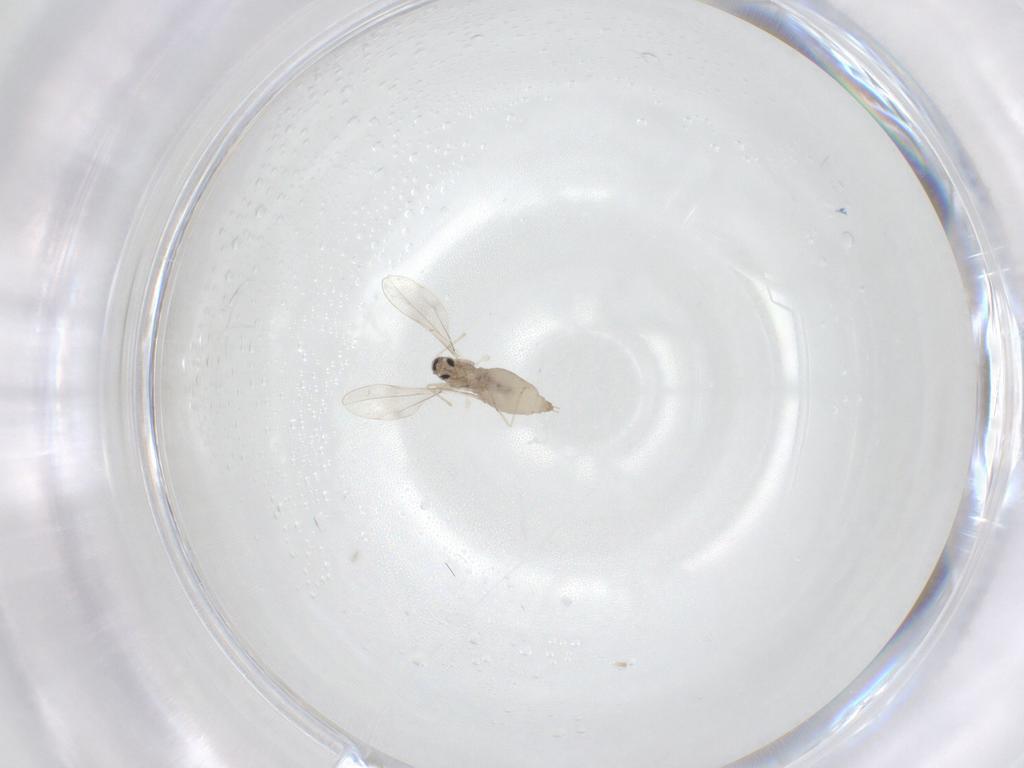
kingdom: Animalia
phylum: Arthropoda
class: Insecta
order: Diptera
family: Cecidomyiidae
